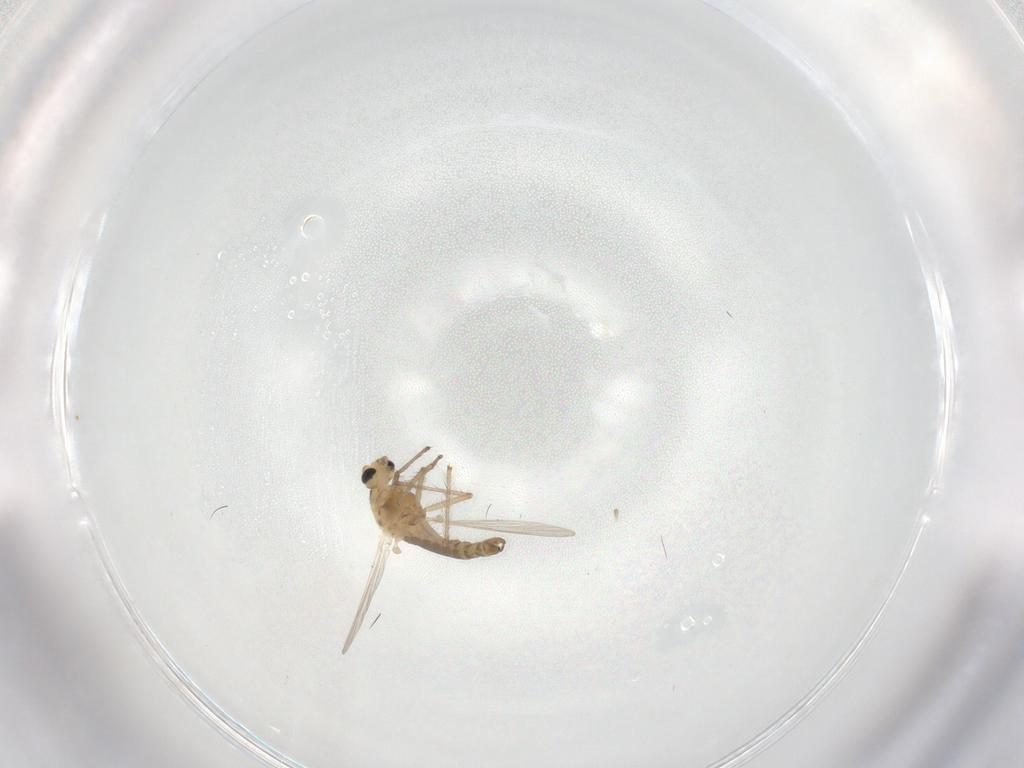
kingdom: Animalia
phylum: Arthropoda
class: Insecta
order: Diptera
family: Chironomidae
